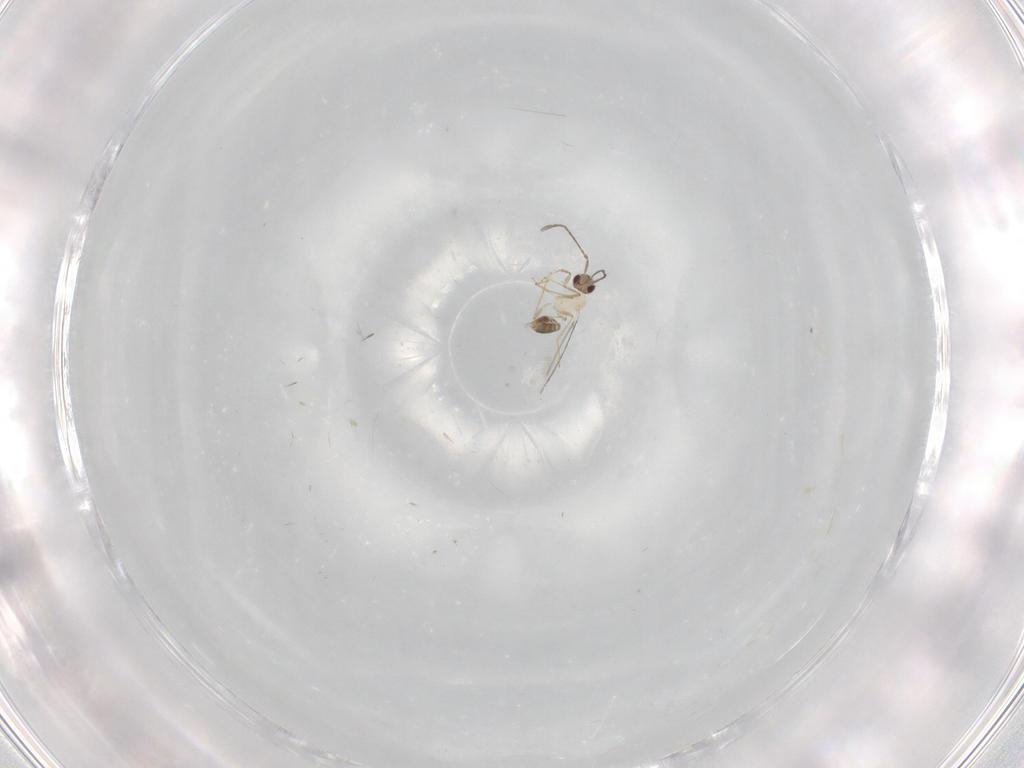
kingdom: Animalia
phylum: Arthropoda
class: Insecta
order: Hymenoptera
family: Mymaridae
